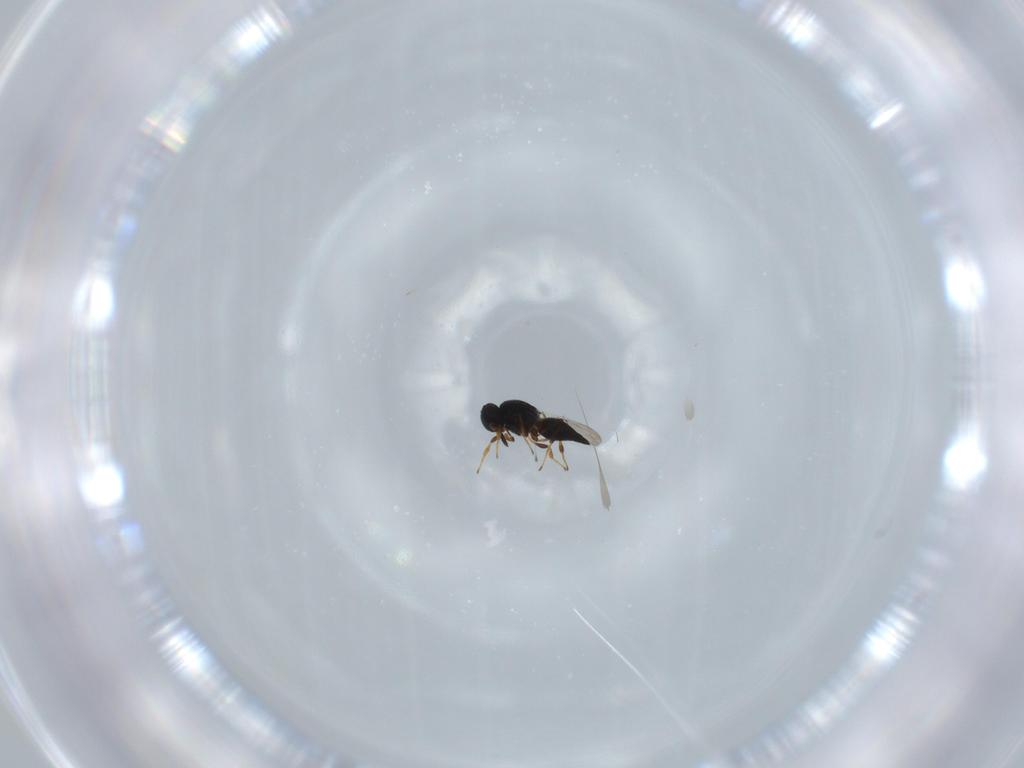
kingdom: Animalia
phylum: Arthropoda
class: Insecta
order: Hymenoptera
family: Platygastridae
